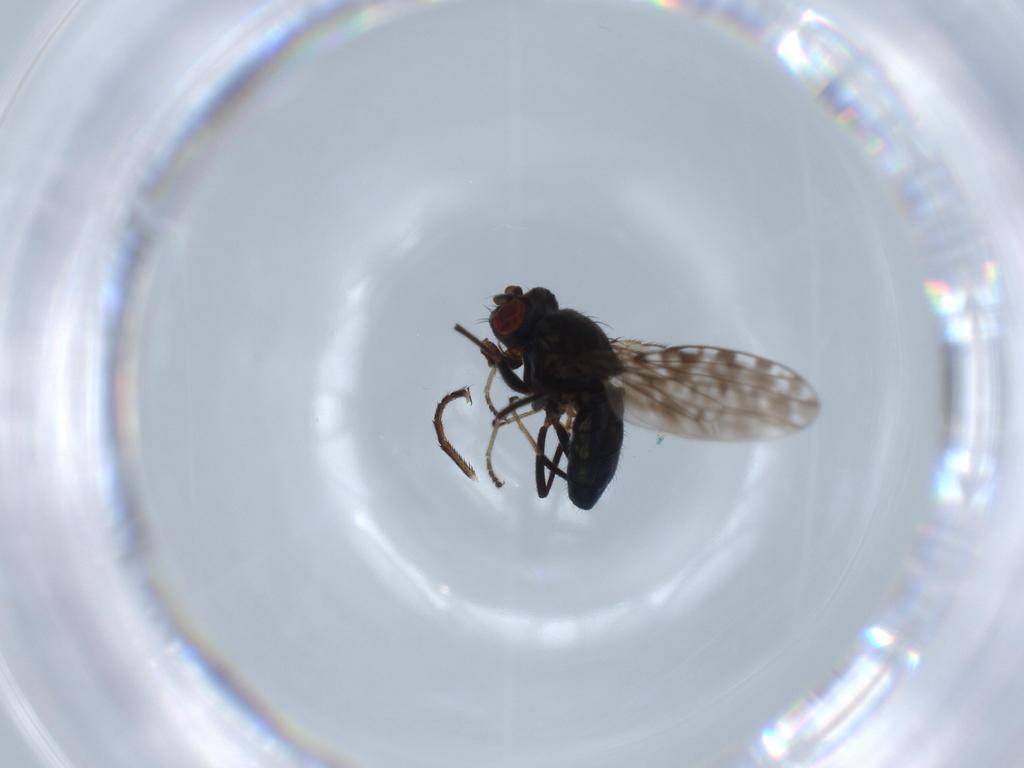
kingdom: Animalia
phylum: Arthropoda
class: Insecta
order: Diptera
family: Ephydridae
